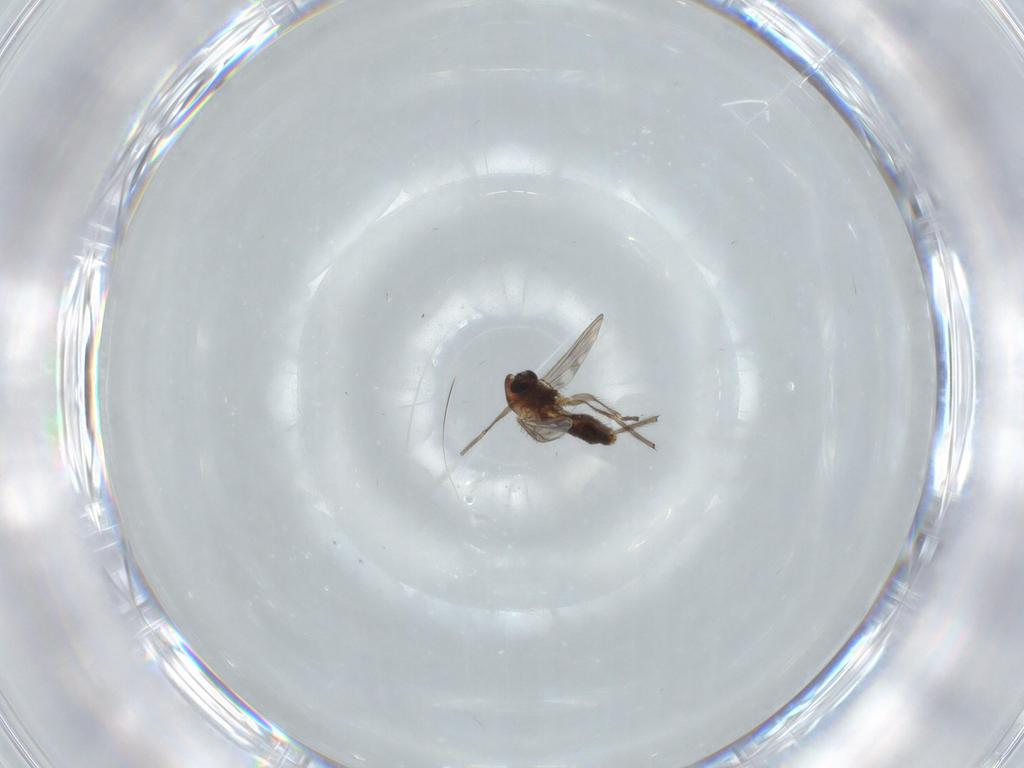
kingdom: Animalia
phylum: Arthropoda
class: Insecta
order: Diptera
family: Chironomidae
